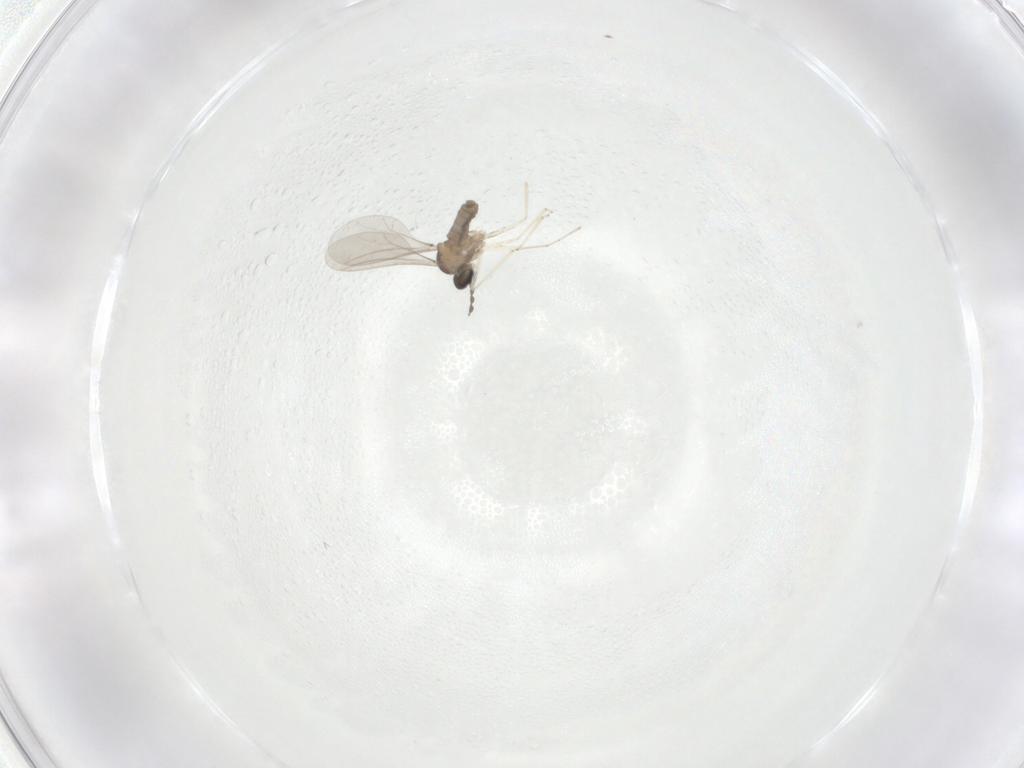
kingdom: Animalia
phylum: Arthropoda
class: Insecta
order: Diptera
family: Cecidomyiidae
